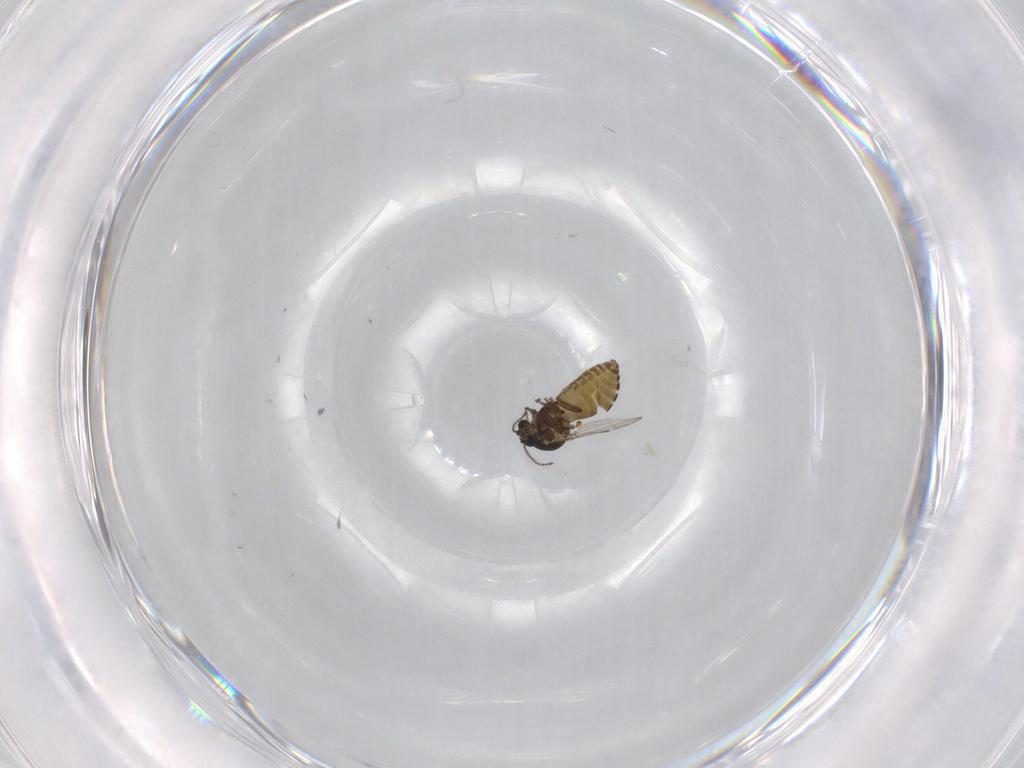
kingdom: Animalia
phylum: Arthropoda
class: Insecta
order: Diptera
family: Ceratopogonidae
